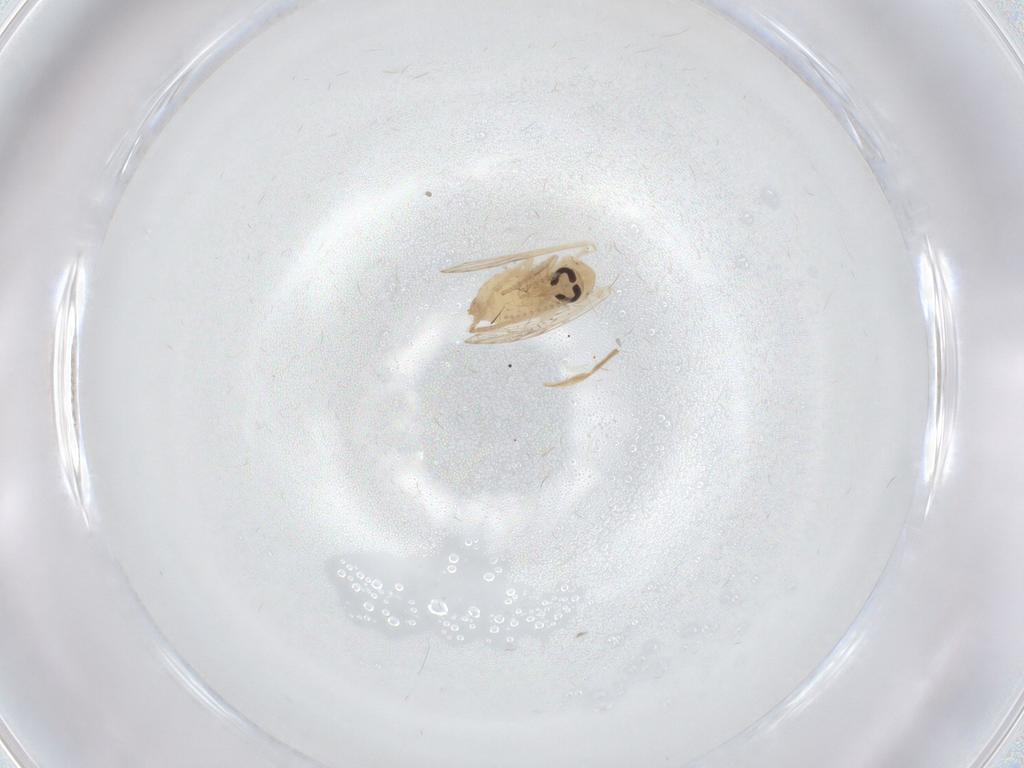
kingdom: Animalia
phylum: Arthropoda
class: Insecta
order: Diptera
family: Psychodidae
